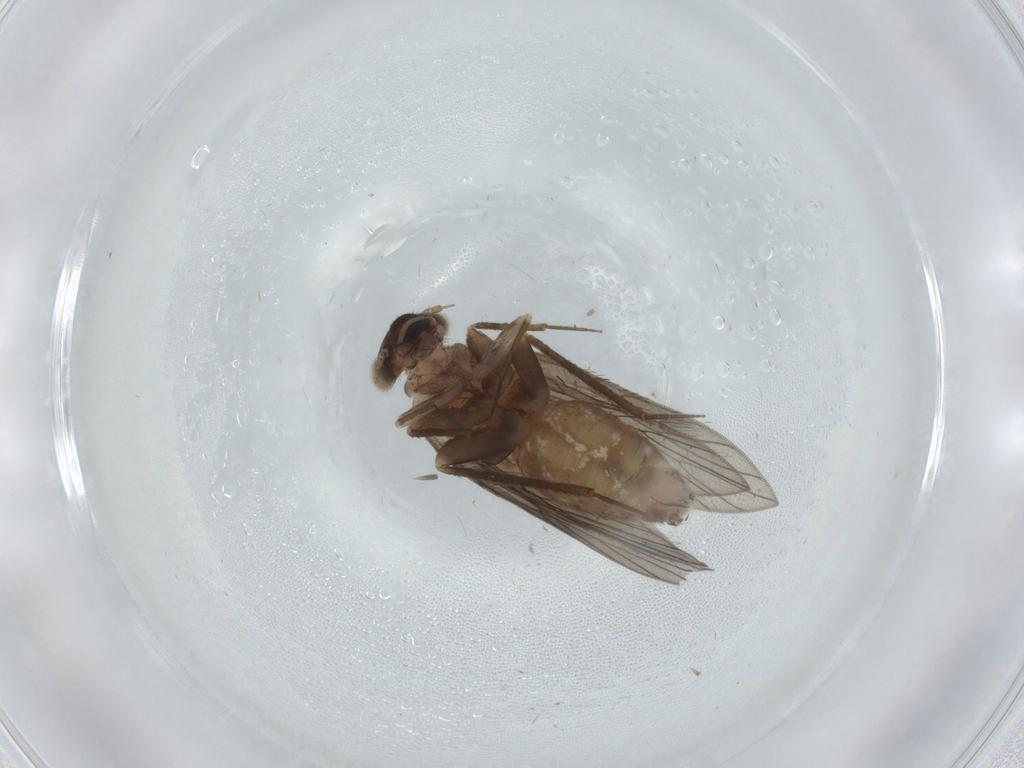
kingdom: Animalia
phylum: Arthropoda
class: Insecta
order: Psocodea
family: Lepidopsocidae
